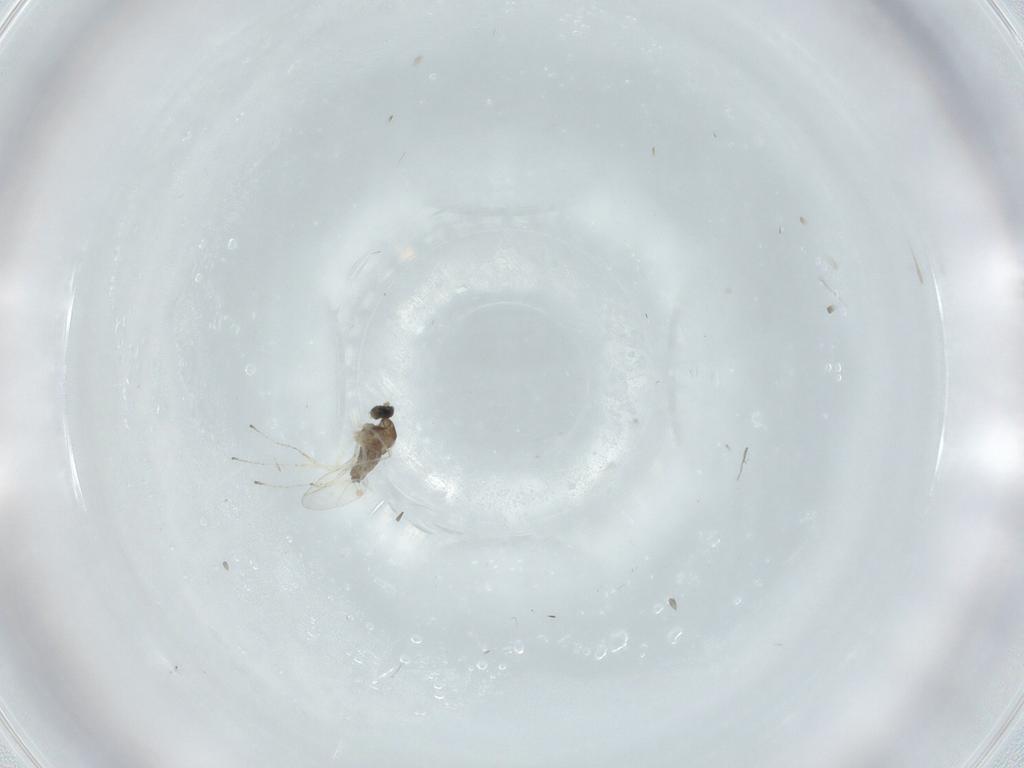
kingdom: Animalia
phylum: Arthropoda
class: Insecta
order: Diptera
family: Cecidomyiidae
